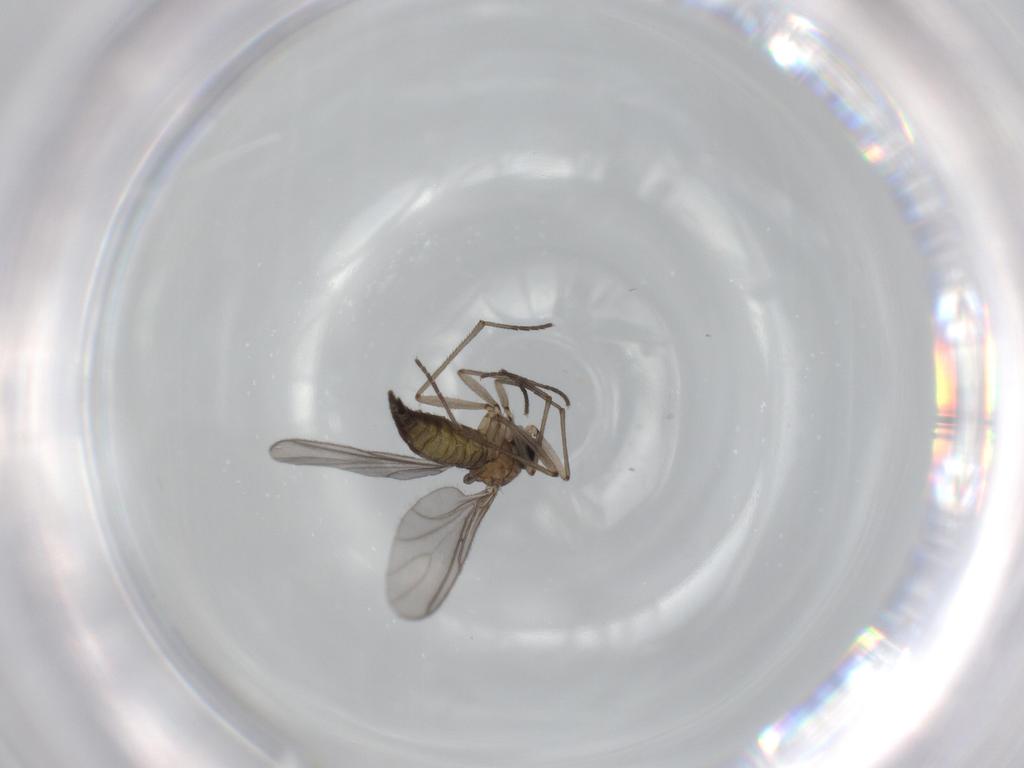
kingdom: Animalia
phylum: Arthropoda
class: Insecta
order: Diptera
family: Sciaridae
